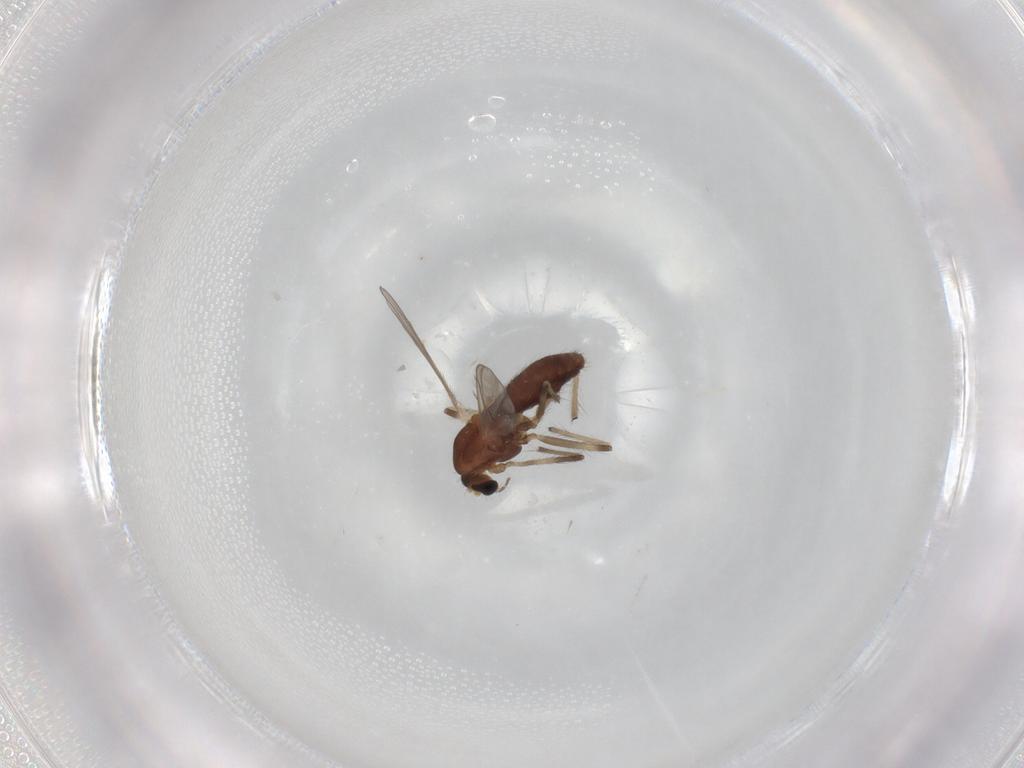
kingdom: Animalia
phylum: Arthropoda
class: Insecta
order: Diptera
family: Chironomidae
